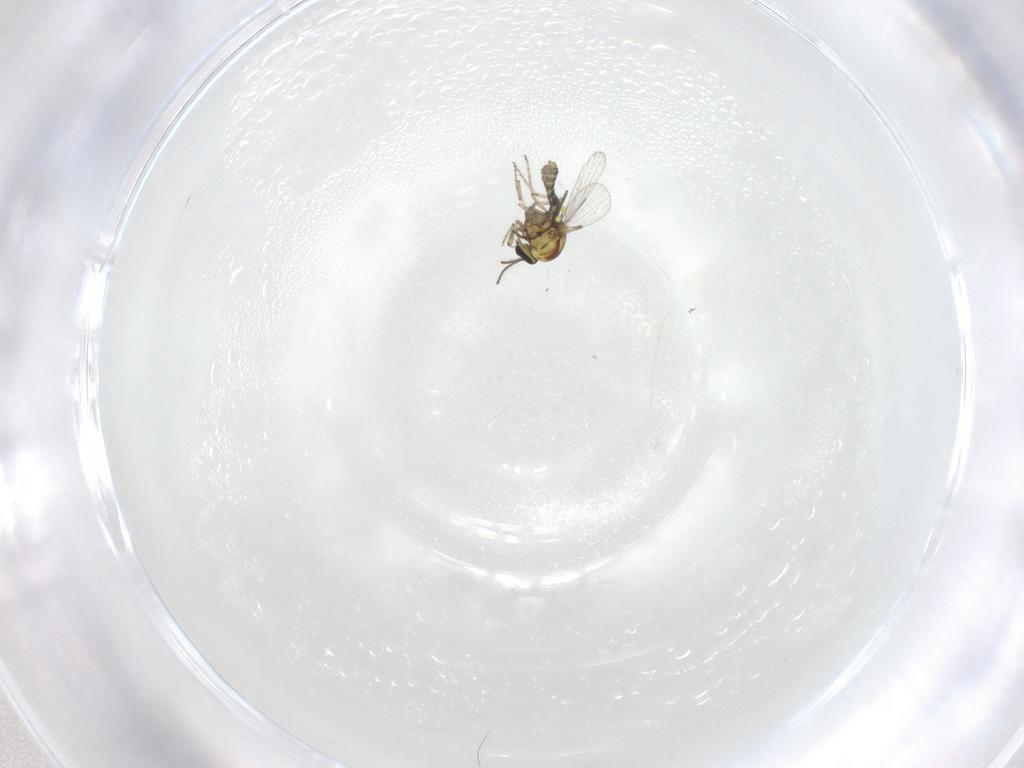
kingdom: Animalia
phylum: Arthropoda
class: Insecta
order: Diptera
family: Chironomidae
